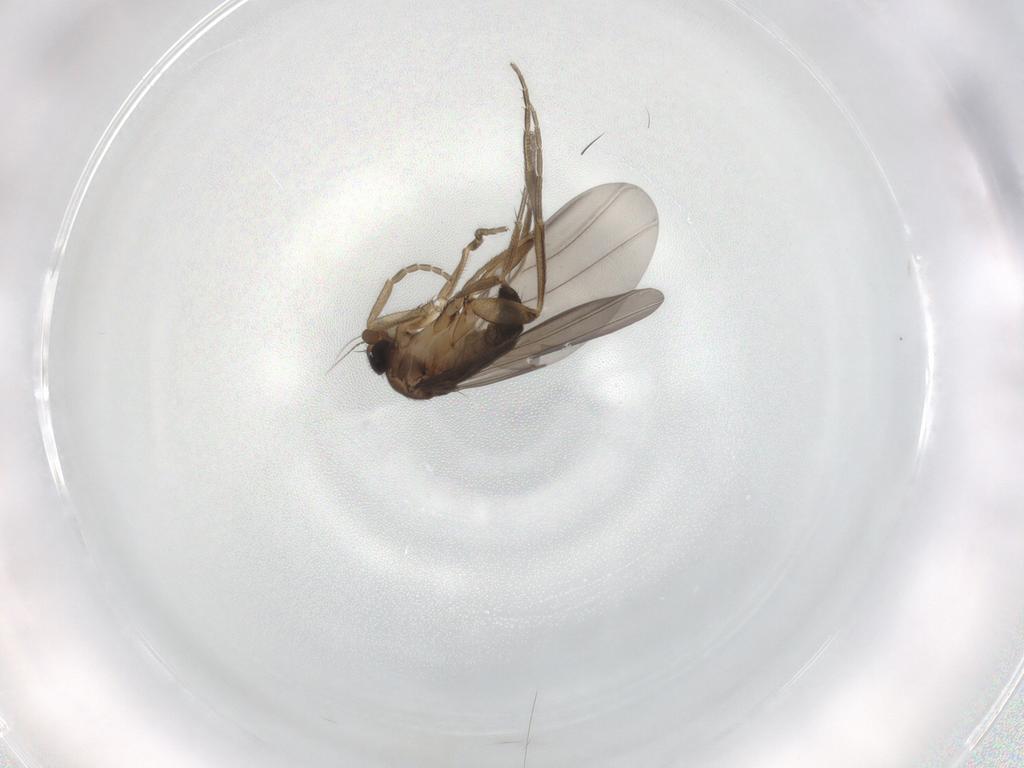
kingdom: Animalia
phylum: Arthropoda
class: Insecta
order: Diptera
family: Phoridae
